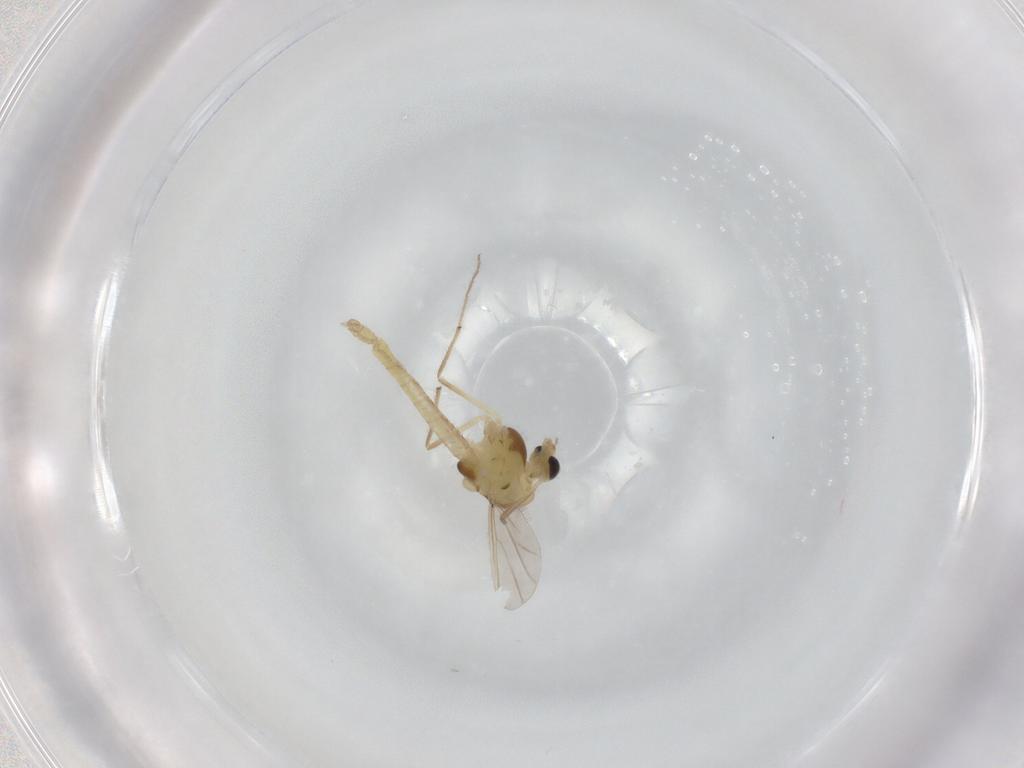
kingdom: Animalia
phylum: Arthropoda
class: Insecta
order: Diptera
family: Chironomidae
